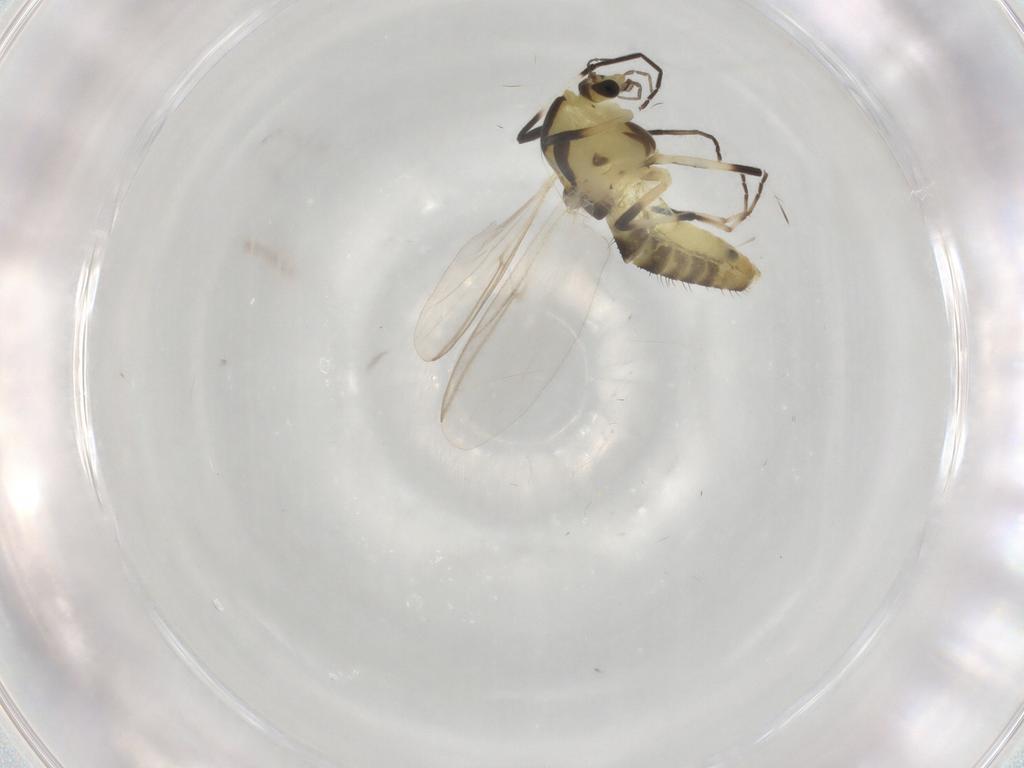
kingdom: Animalia
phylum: Arthropoda
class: Insecta
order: Diptera
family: Chironomidae
